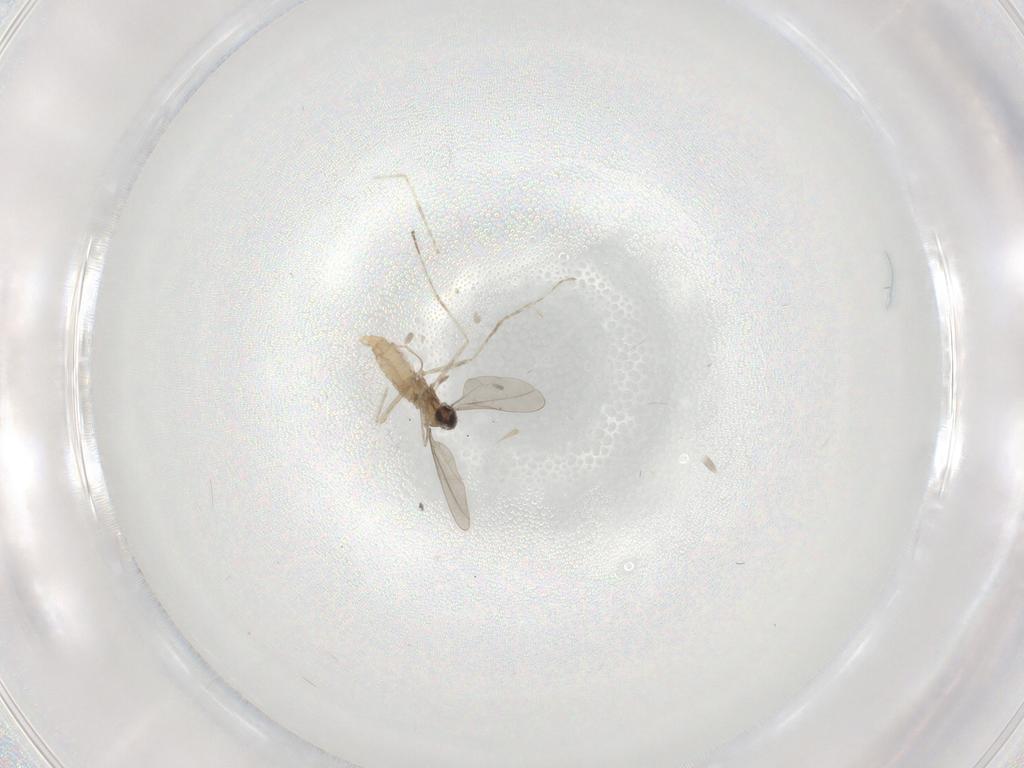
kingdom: Animalia
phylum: Arthropoda
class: Insecta
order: Diptera
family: Cecidomyiidae
